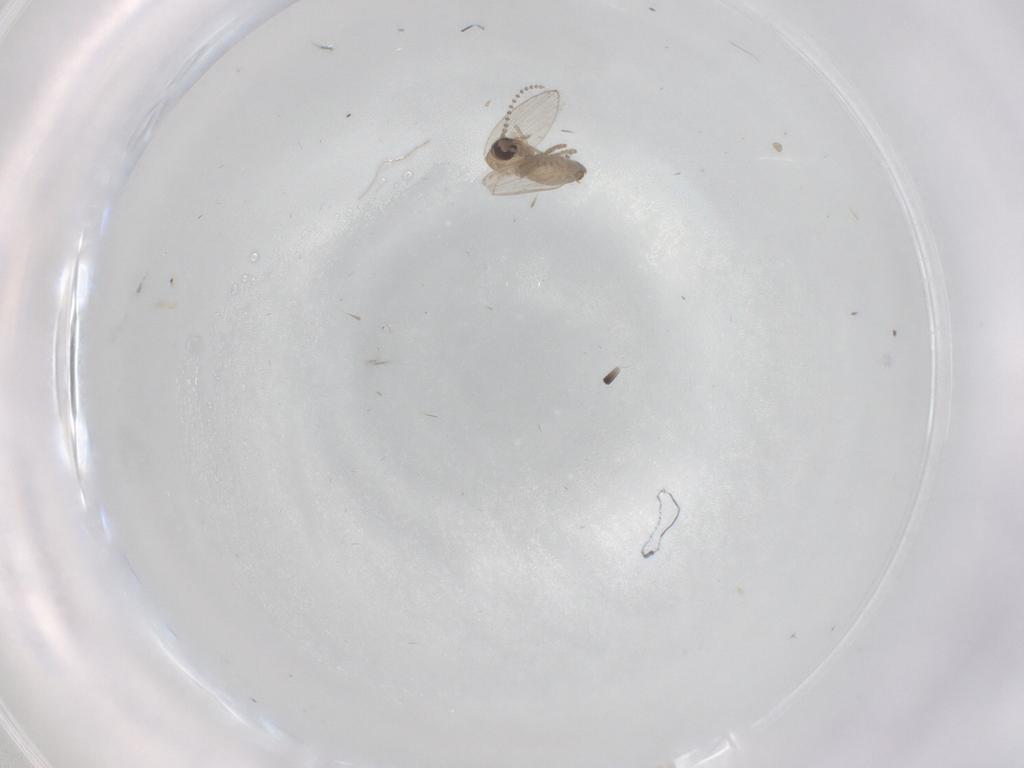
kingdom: Animalia
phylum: Arthropoda
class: Insecta
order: Diptera
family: Psychodidae
